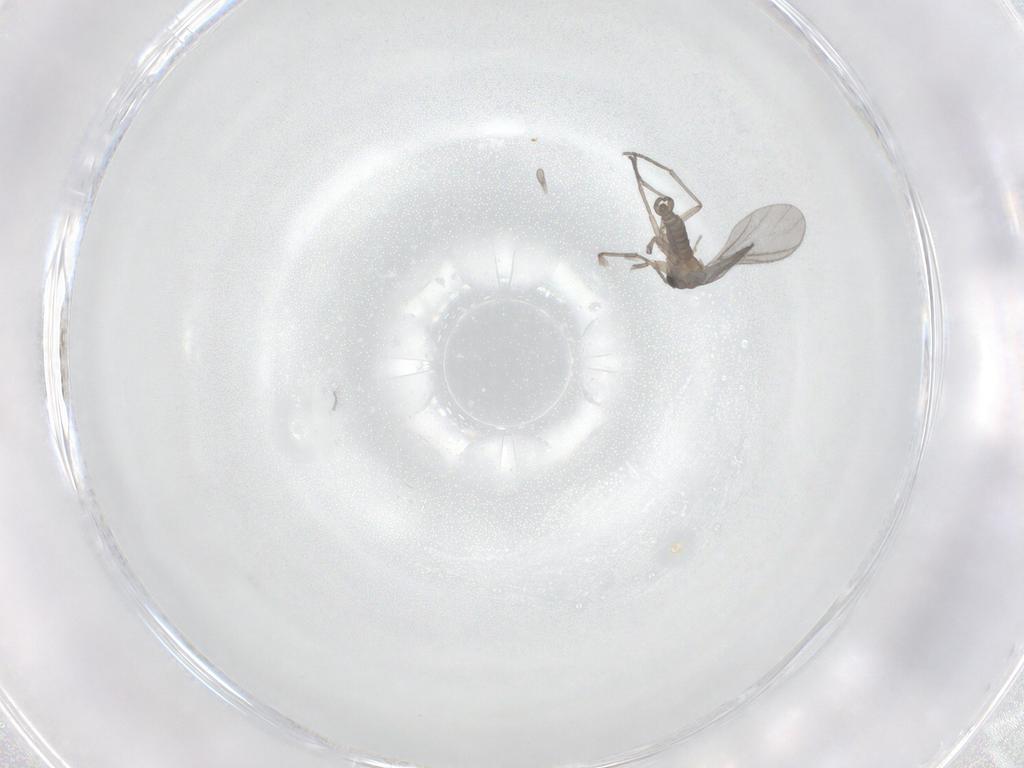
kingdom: Animalia
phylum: Arthropoda
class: Insecta
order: Diptera
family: Sciaridae
